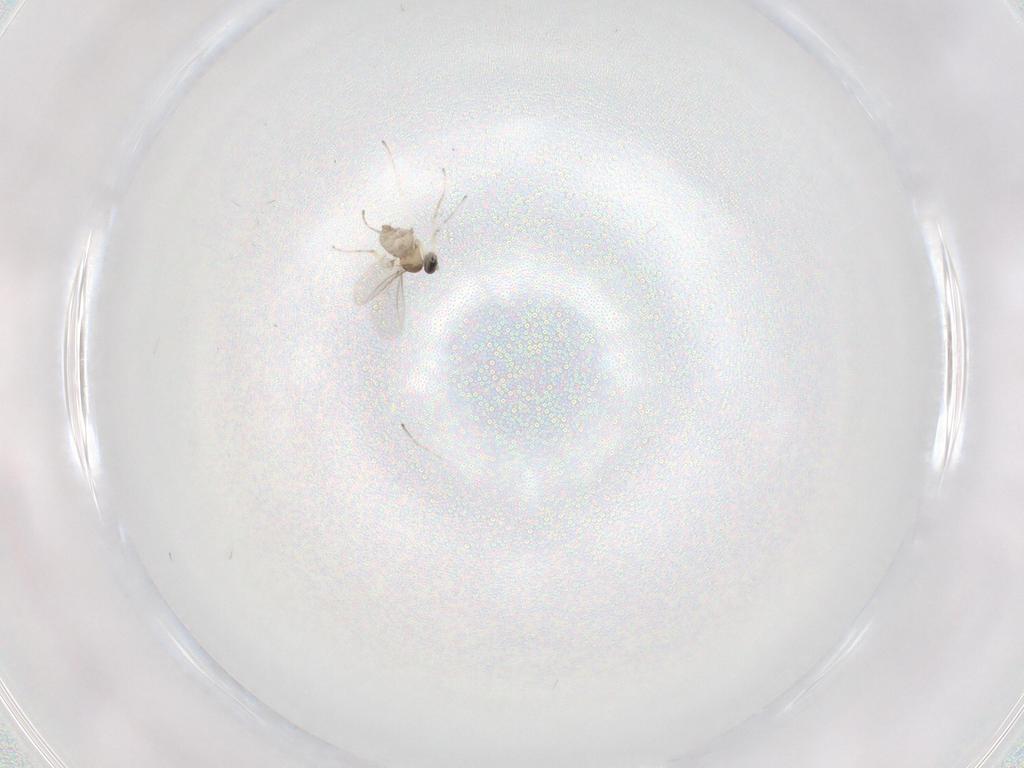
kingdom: Animalia
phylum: Arthropoda
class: Insecta
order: Diptera
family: Cecidomyiidae
